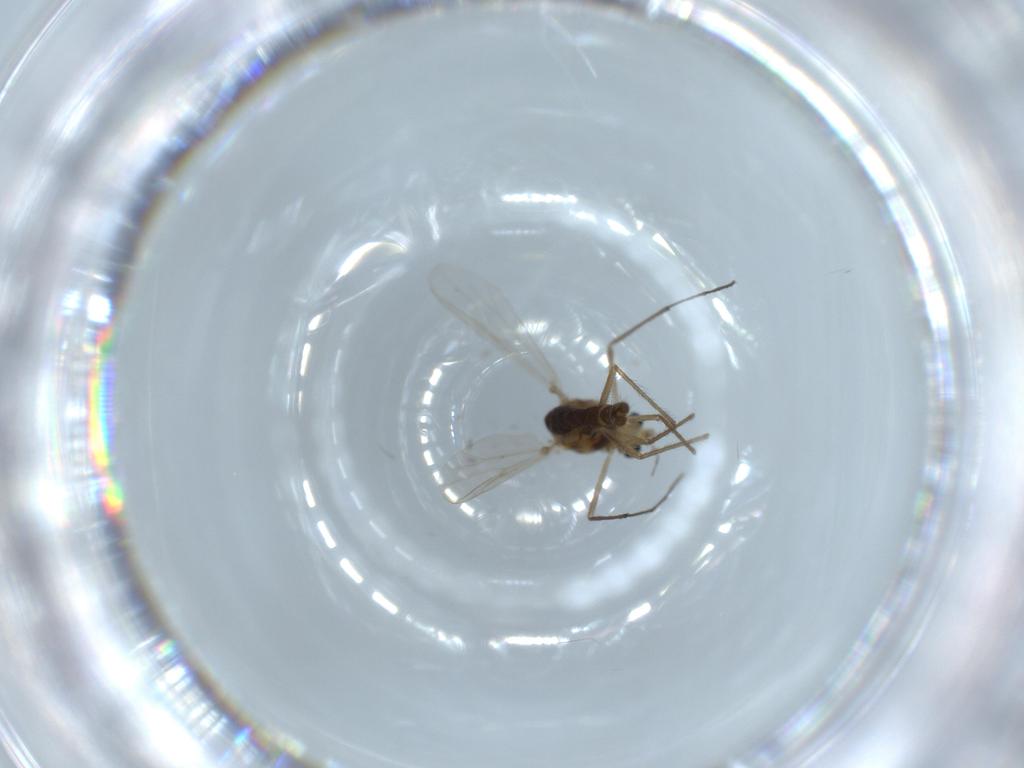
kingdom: Animalia
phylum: Arthropoda
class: Insecta
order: Diptera
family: Chironomidae
